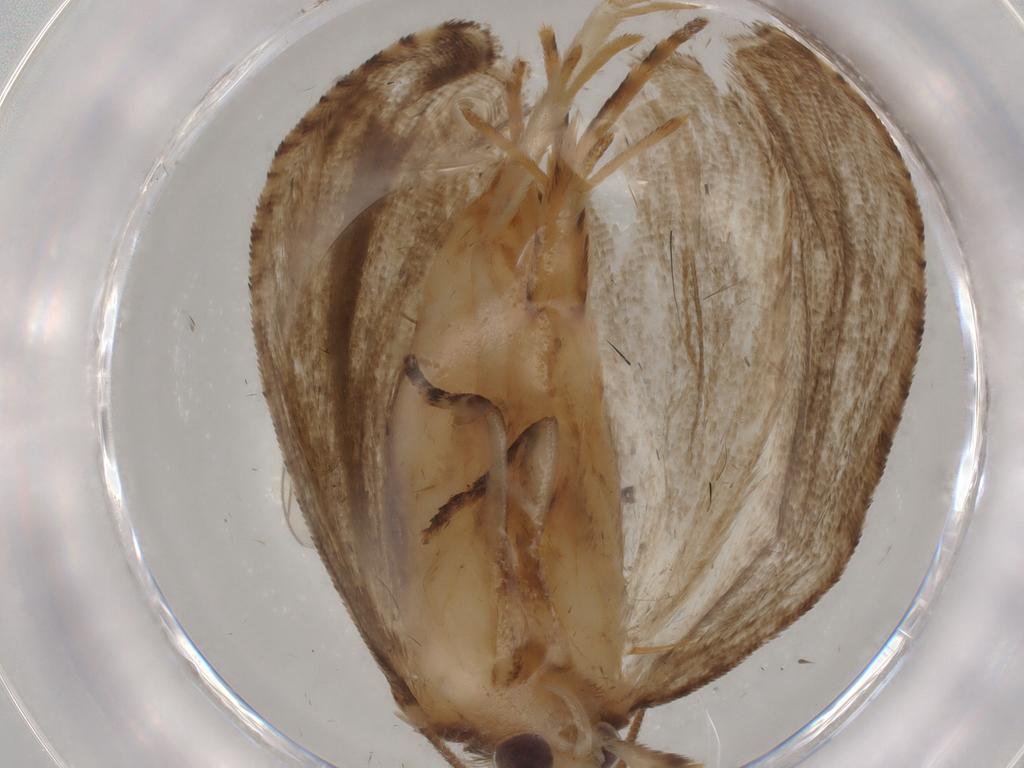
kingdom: Animalia
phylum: Arthropoda
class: Insecta
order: Lepidoptera
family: Tortricidae
